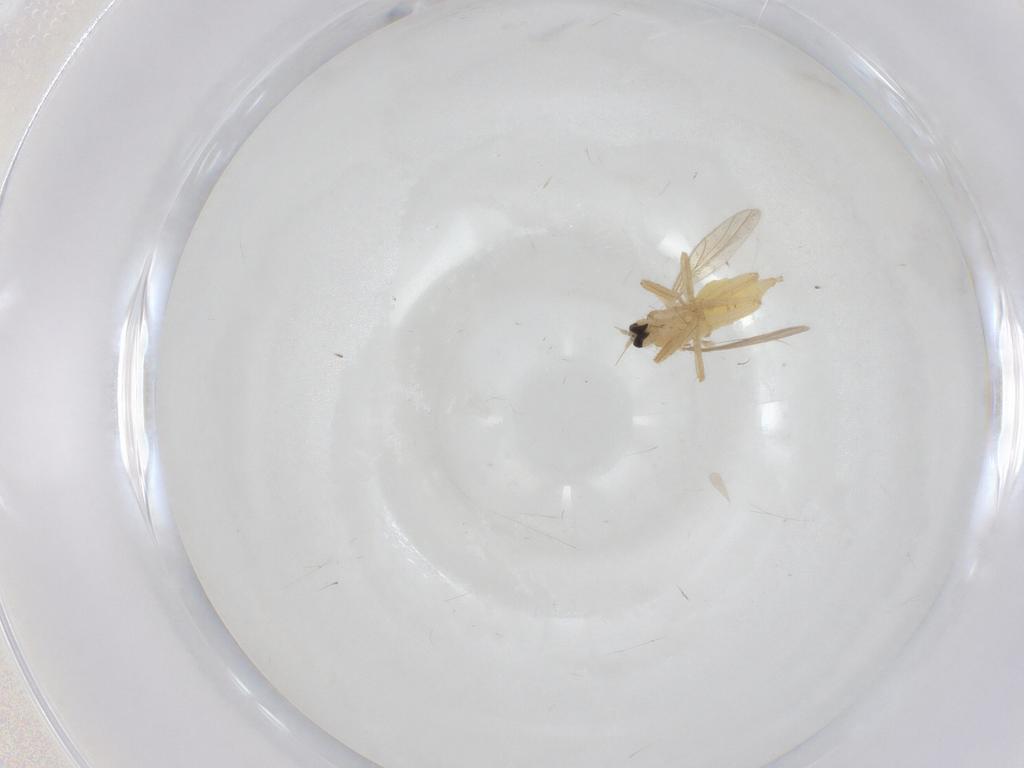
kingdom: Animalia
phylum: Arthropoda
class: Insecta
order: Diptera
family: Hybotidae
